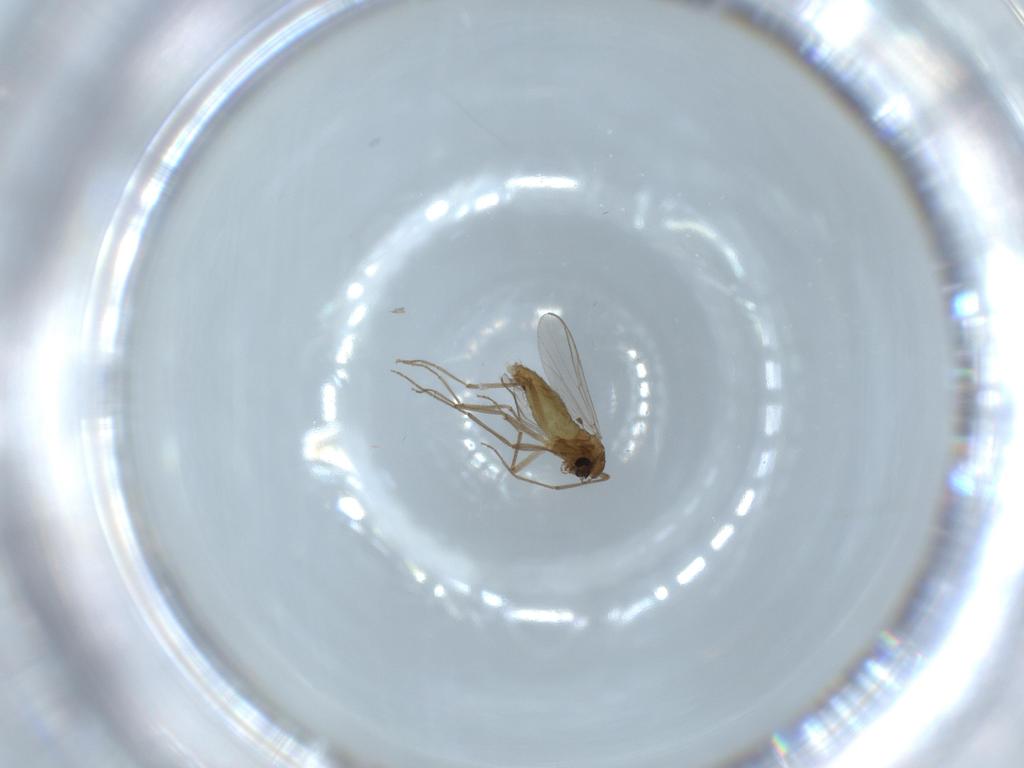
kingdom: Animalia
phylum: Arthropoda
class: Insecta
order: Diptera
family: Chironomidae
